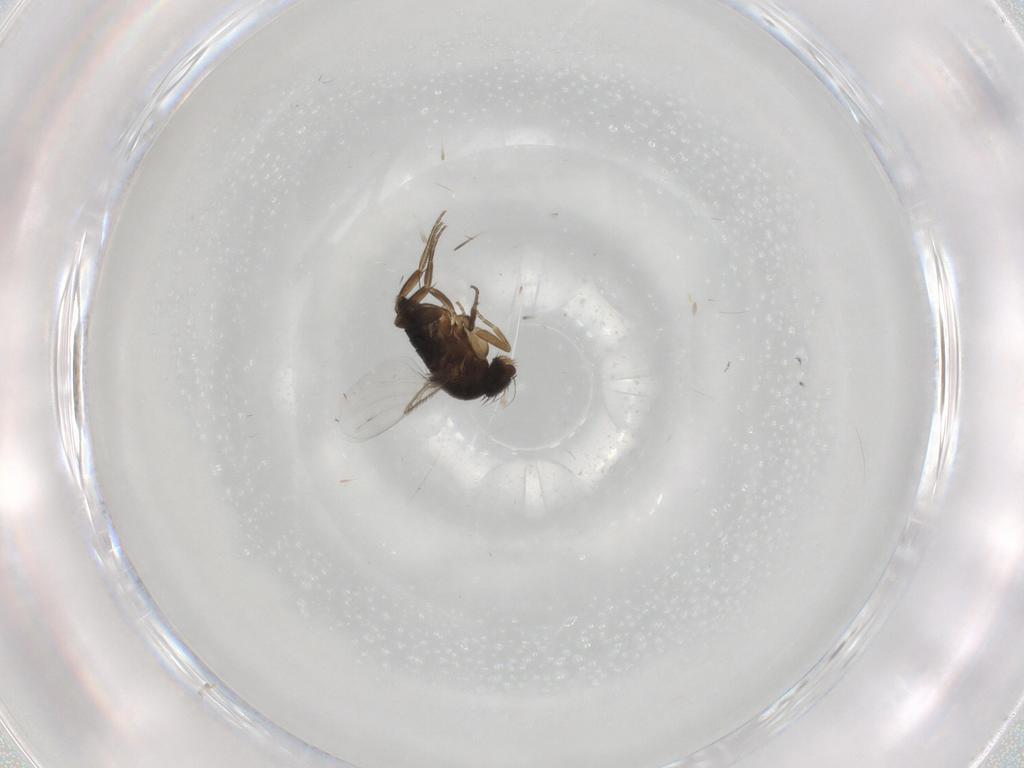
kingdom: Animalia
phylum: Arthropoda
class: Insecta
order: Diptera
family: Phoridae
